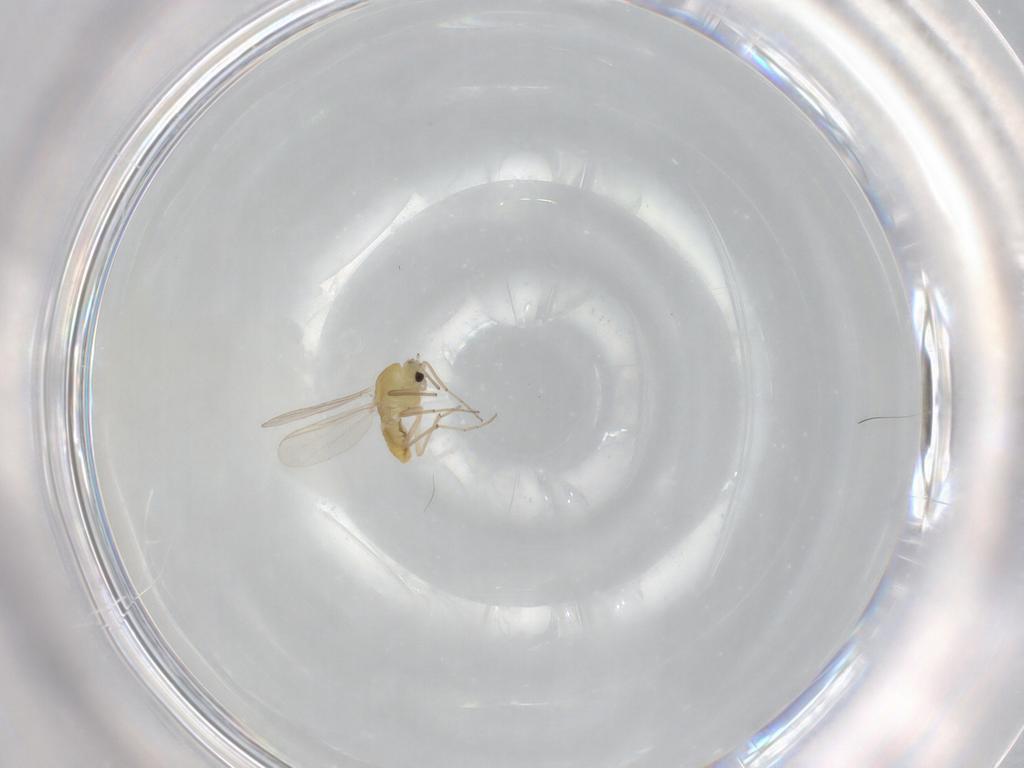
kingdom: Animalia
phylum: Arthropoda
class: Insecta
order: Diptera
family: Chironomidae
